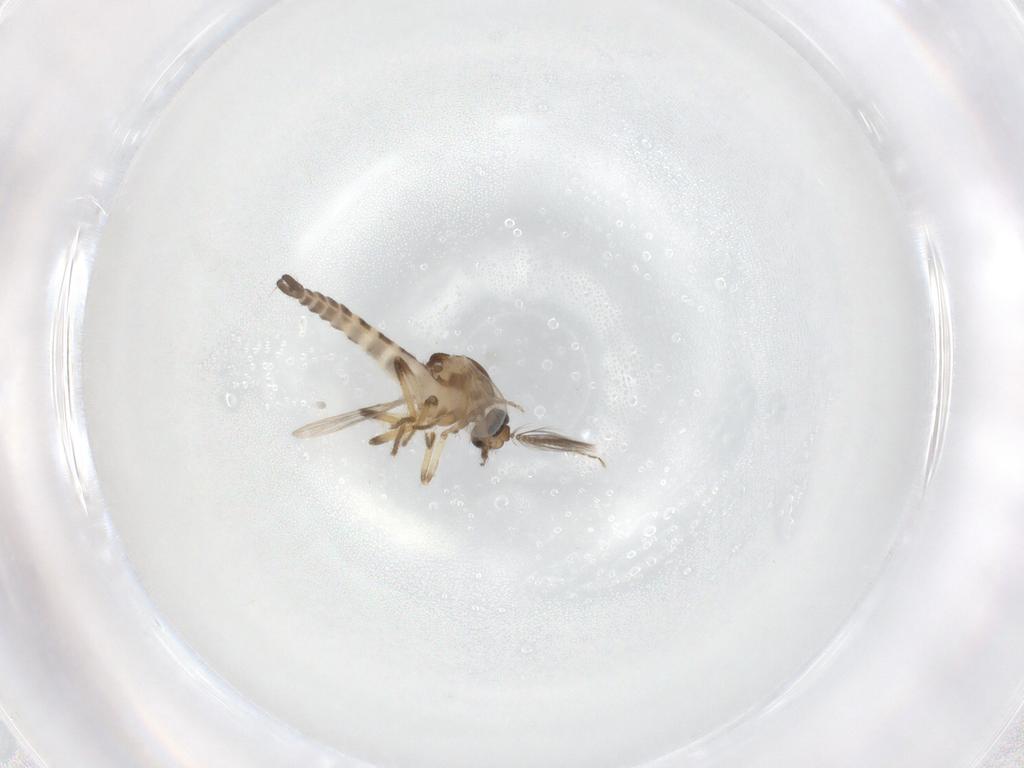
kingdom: Animalia
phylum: Arthropoda
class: Insecta
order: Diptera
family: Ceratopogonidae
